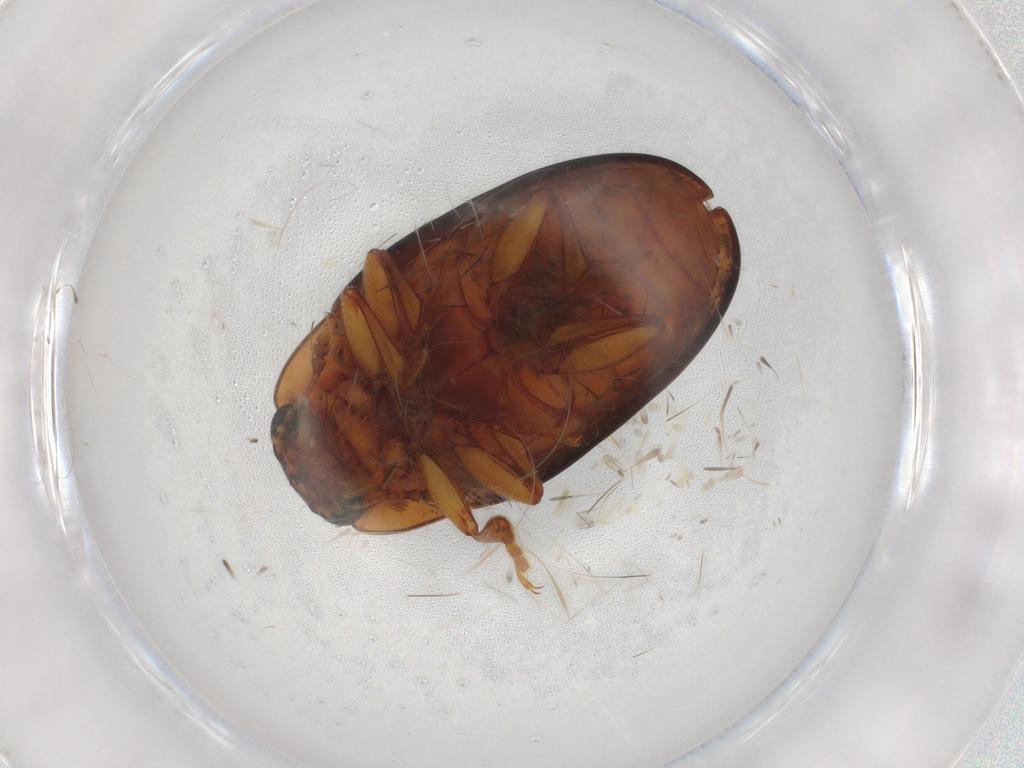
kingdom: Animalia
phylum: Arthropoda
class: Insecta
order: Coleoptera
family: Erotylidae
